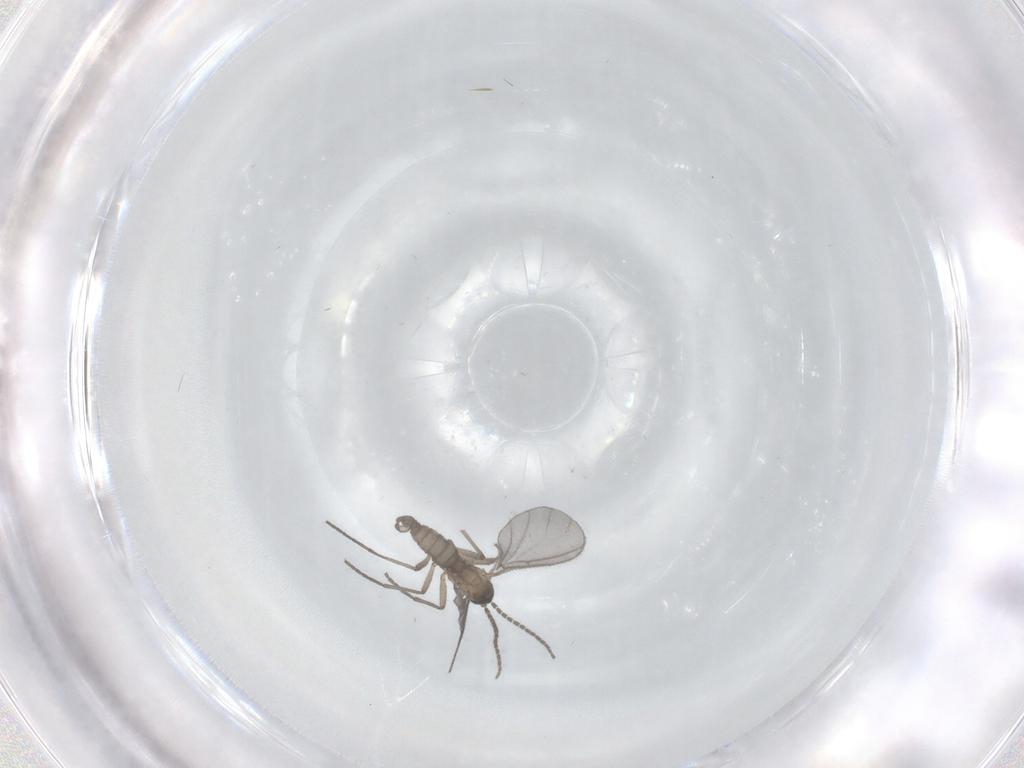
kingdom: Animalia
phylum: Arthropoda
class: Insecta
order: Diptera
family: Sciaridae
